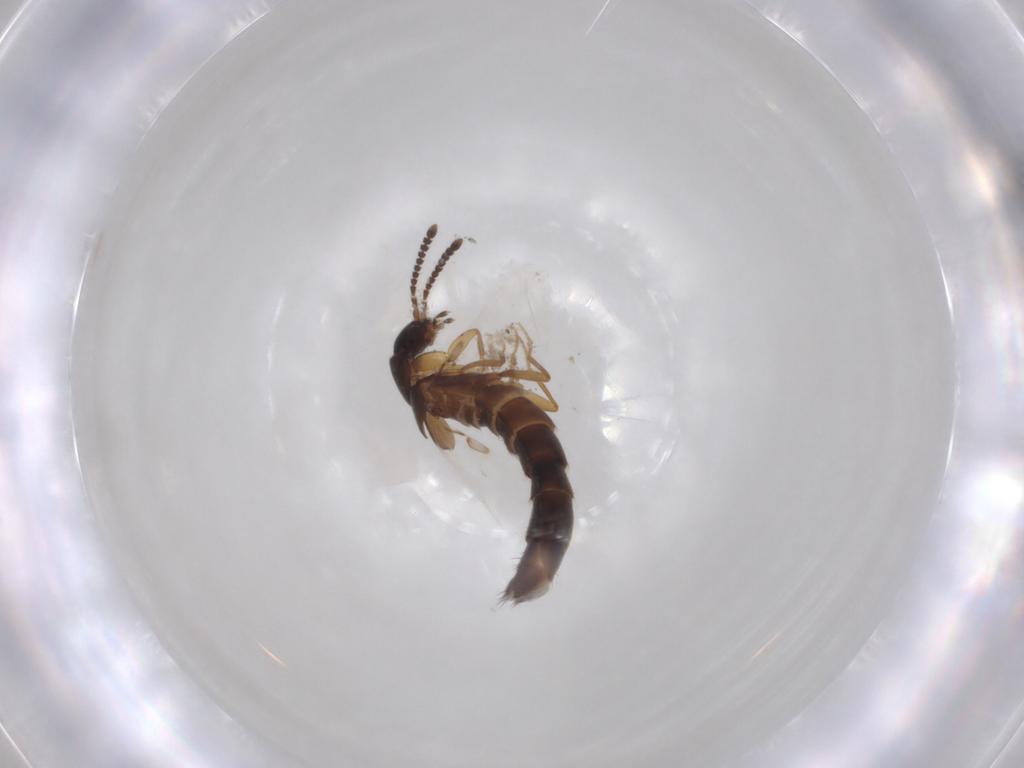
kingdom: Animalia
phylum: Arthropoda
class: Insecta
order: Coleoptera
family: Staphylinidae
